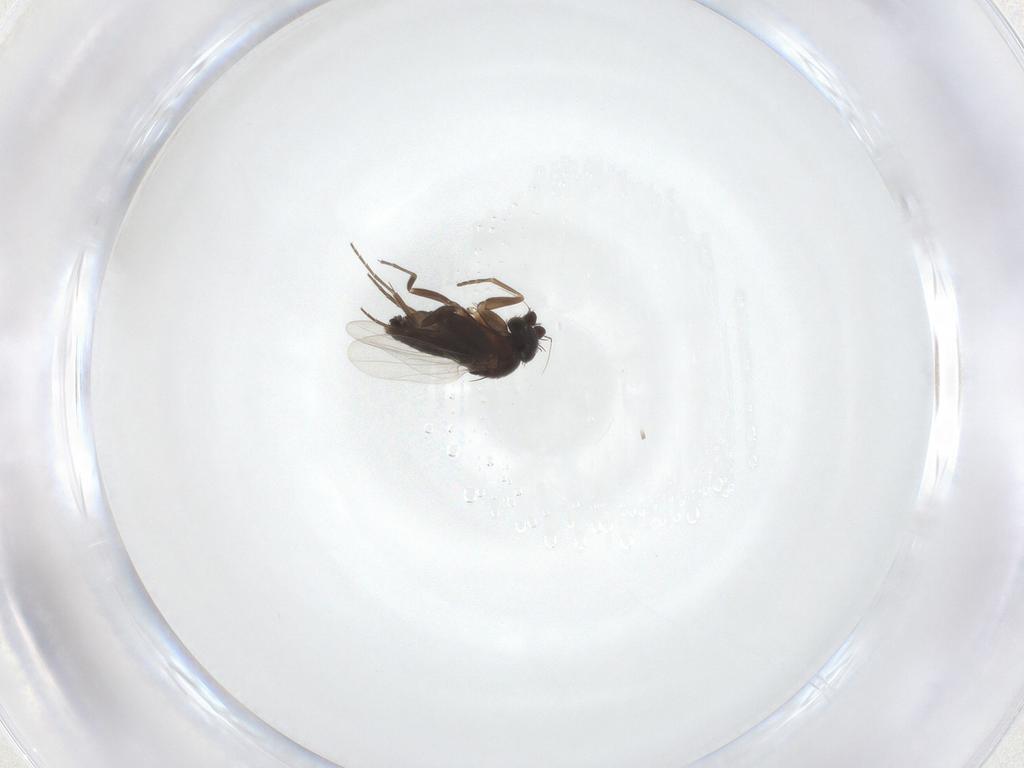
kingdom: Animalia
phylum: Arthropoda
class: Insecta
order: Diptera
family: Phoridae
